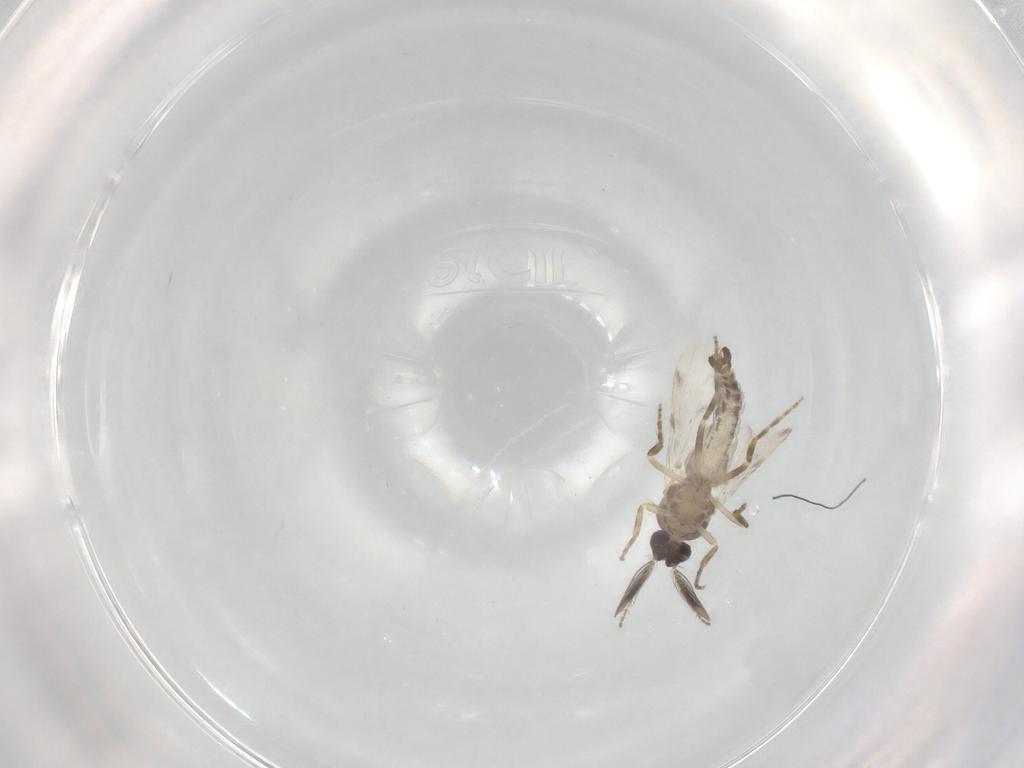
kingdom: Animalia
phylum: Arthropoda
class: Insecta
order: Diptera
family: Ceratopogonidae
